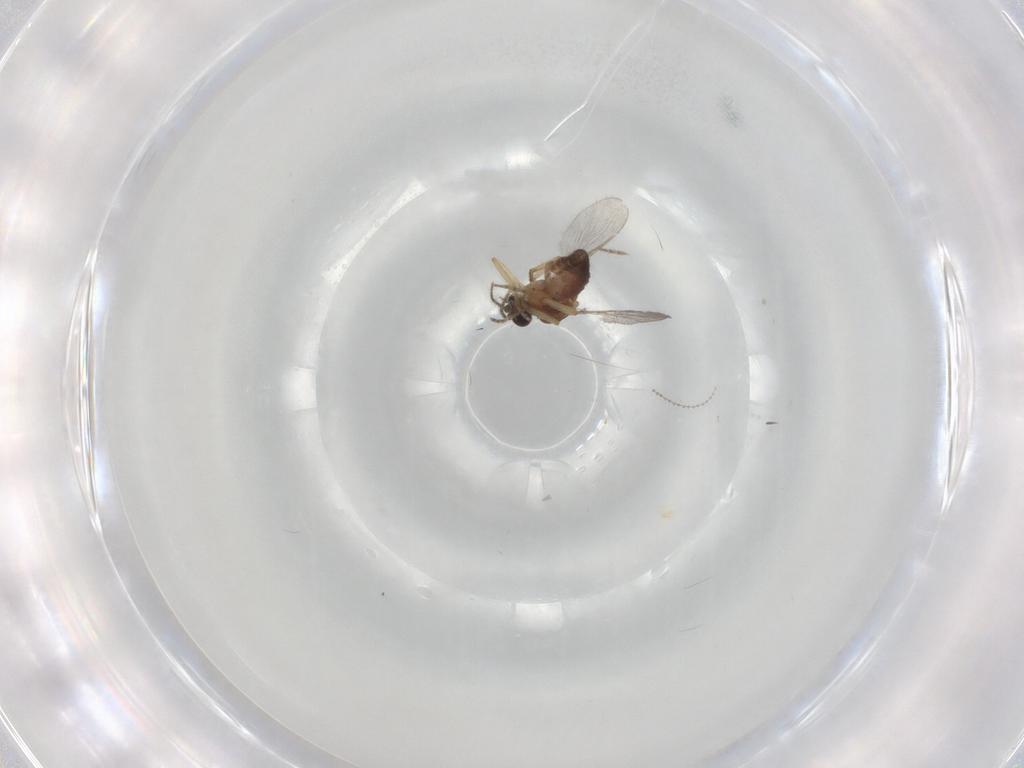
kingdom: Animalia
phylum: Arthropoda
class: Insecta
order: Diptera
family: Ceratopogonidae
